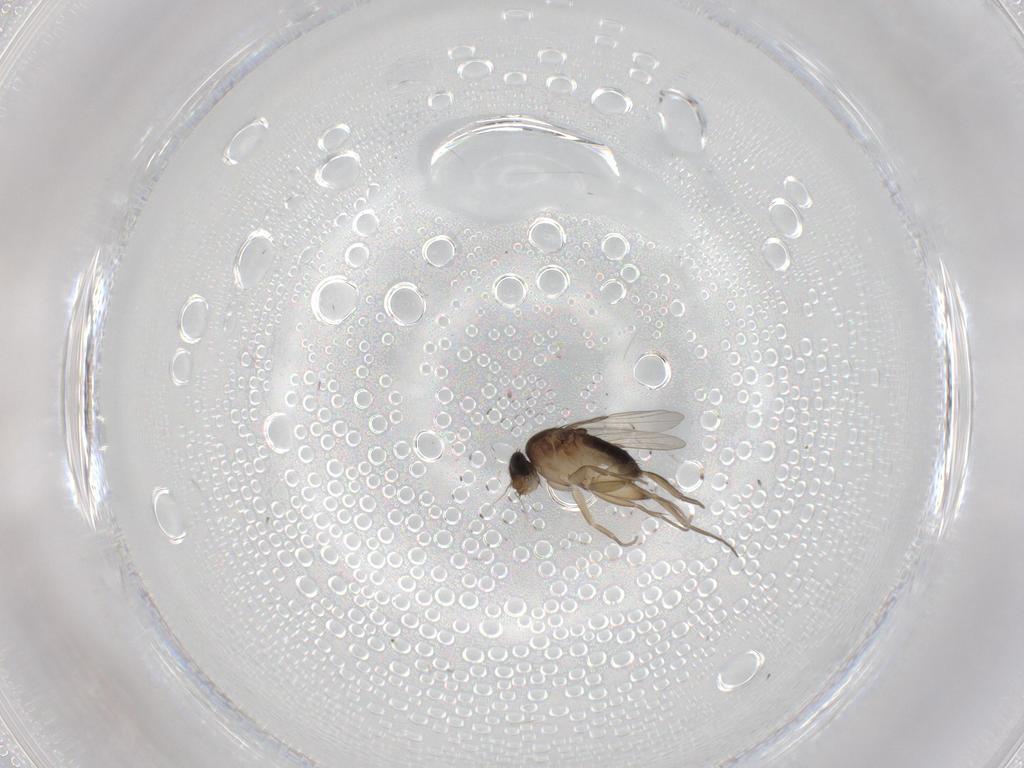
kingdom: Animalia
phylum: Arthropoda
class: Insecta
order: Diptera
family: Phoridae
